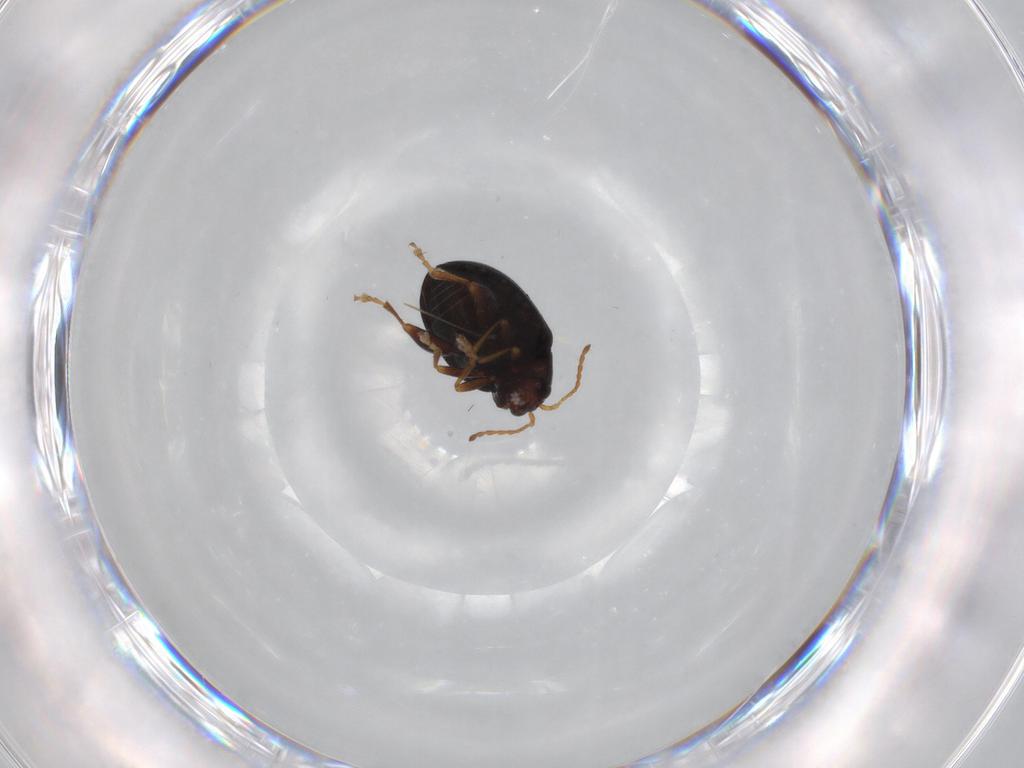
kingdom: Animalia
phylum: Arthropoda
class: Insecta
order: Coleoptera
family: Chrysomelidae
